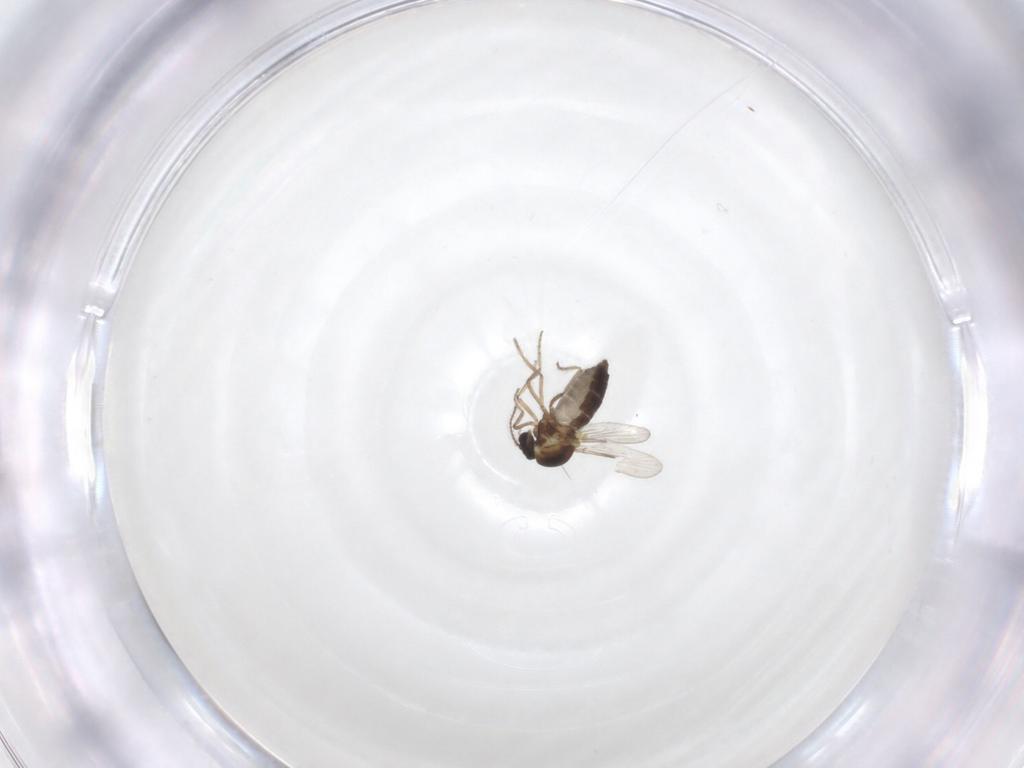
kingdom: Animalia
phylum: Arthropoda
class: Insecta
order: Diptera
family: Ceratopogonidae
